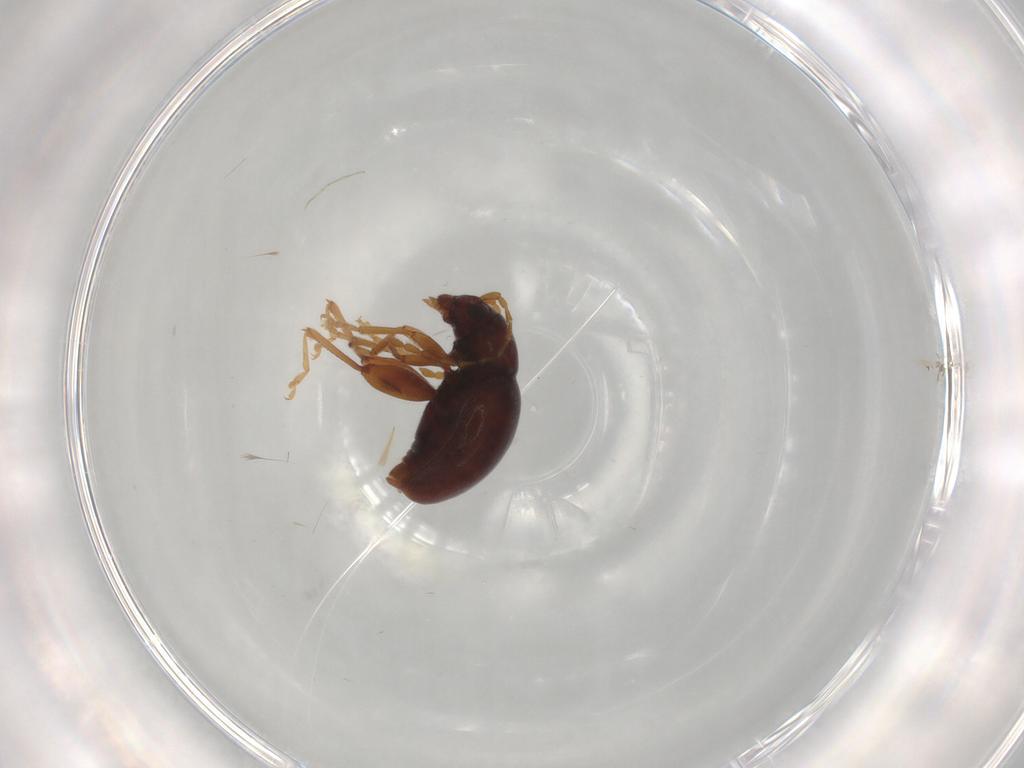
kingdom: Animalia
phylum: Arthropoda
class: Insecta
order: Coleoptera
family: Chrysomelidae
